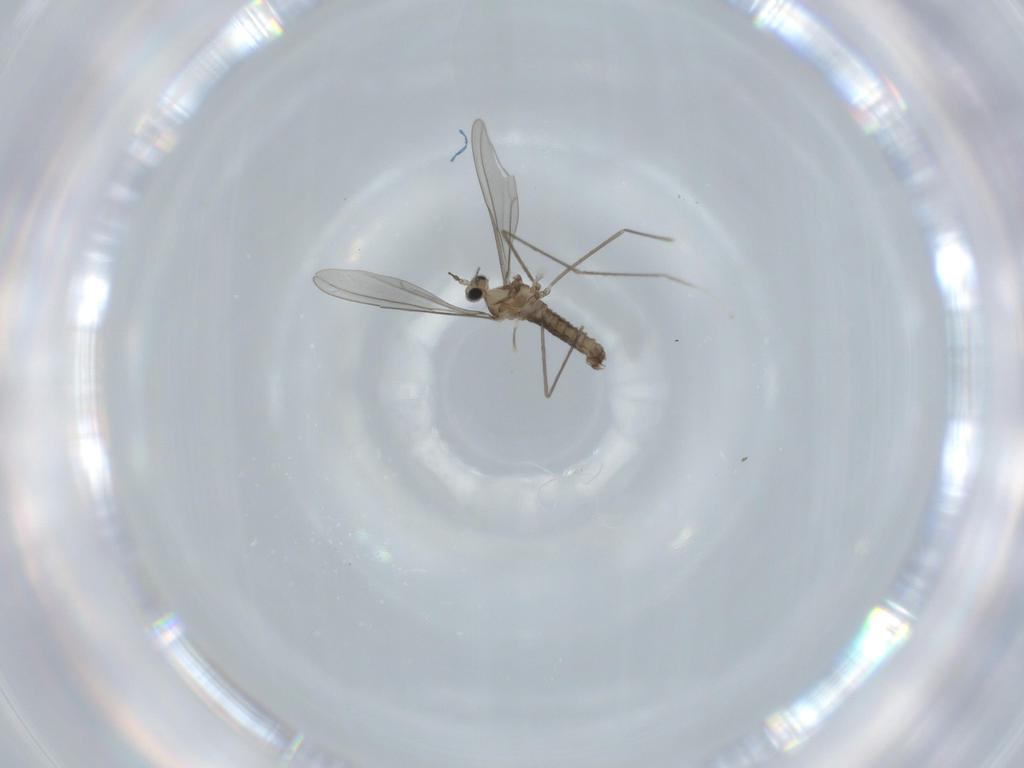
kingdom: Animalia
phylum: Arthropoda
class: Insecta
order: Diptera
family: Cecidomyiidae
